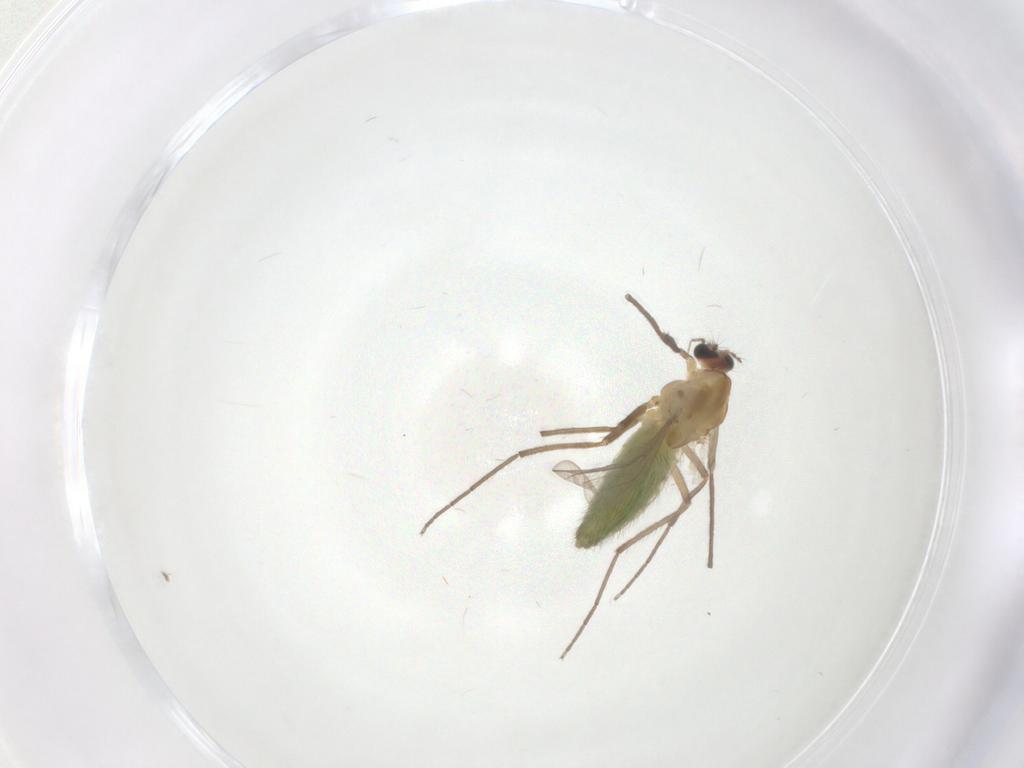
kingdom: Animalia
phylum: Arthropoda
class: Insecta
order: Diptera
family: Chironomidae
